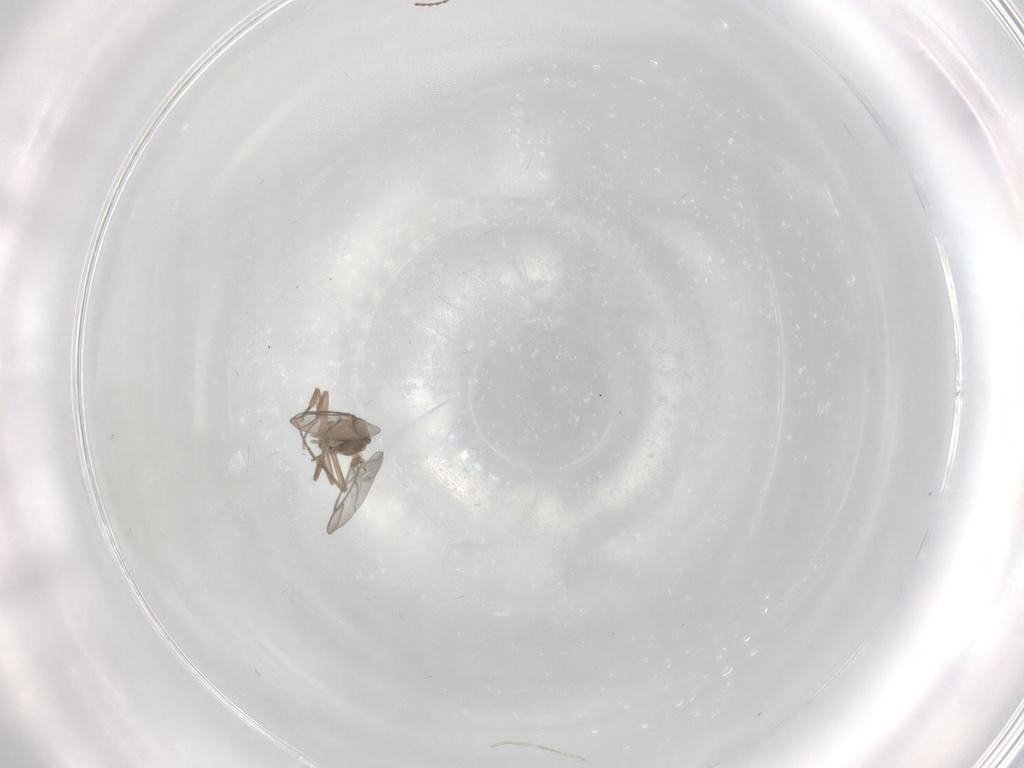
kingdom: Animalia
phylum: Arthropoda
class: Insecta
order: Diptera
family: Cecidomyiidae
